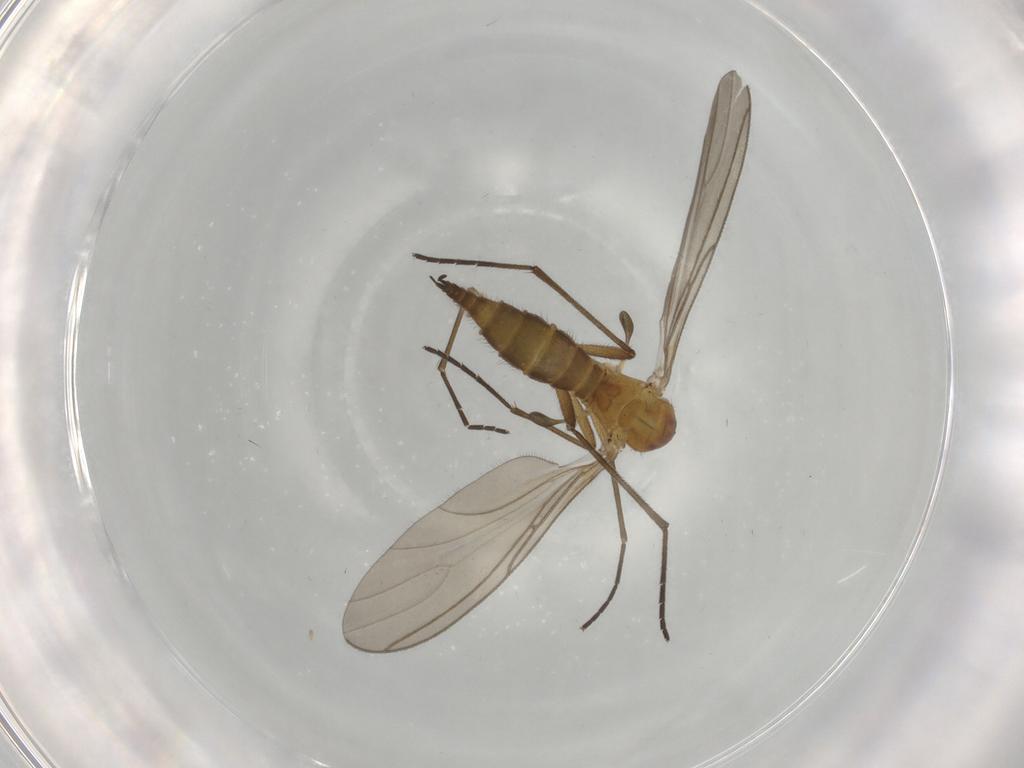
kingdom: Animalia
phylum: Arthropoda
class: Insecta
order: Diptera
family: Sciaridae
